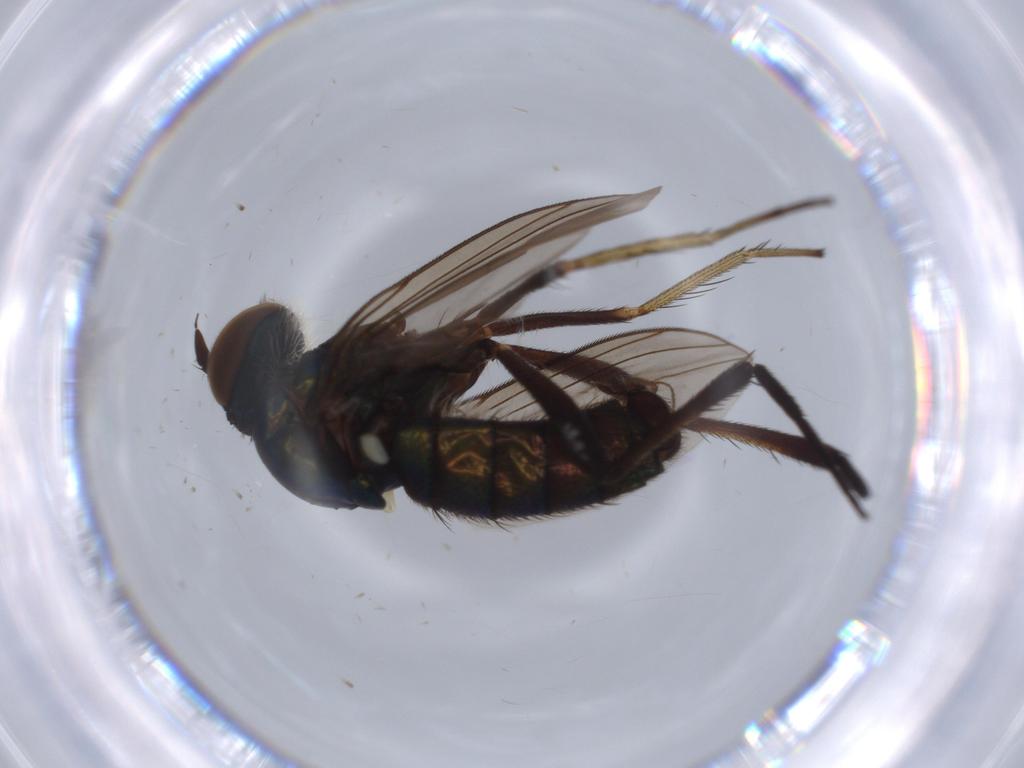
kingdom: Animalia
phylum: Arthropoda
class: Insecta
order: Diptera
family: Dolichopodidae
